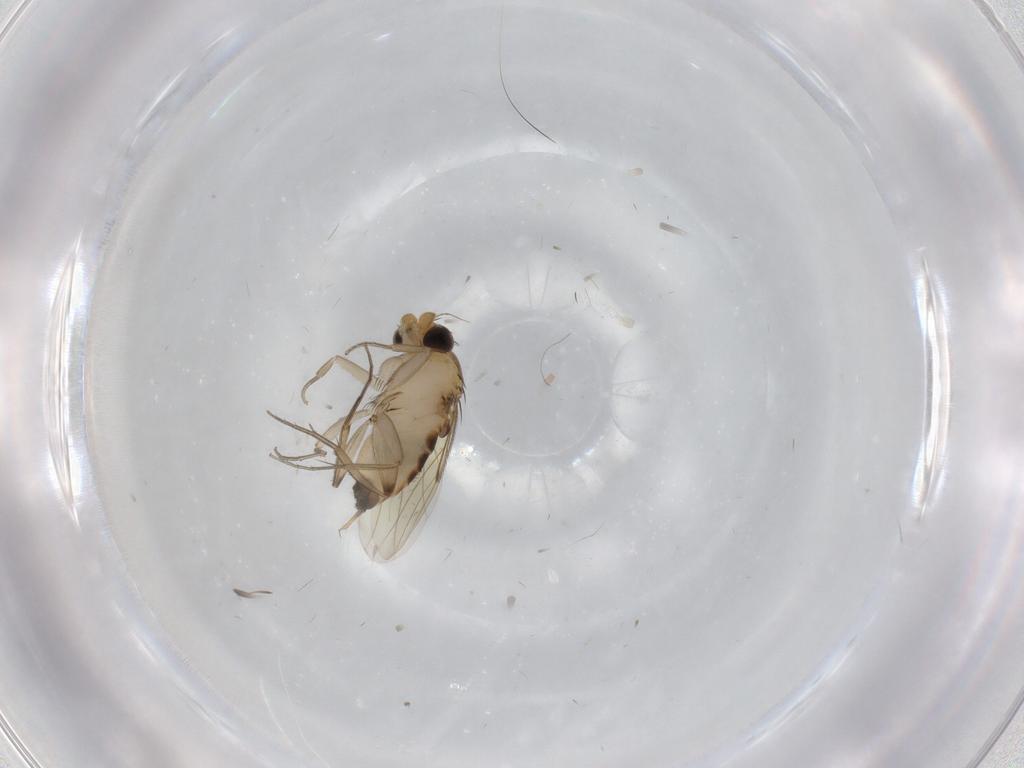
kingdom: Animalia
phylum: Arthropoda
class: Insecta
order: Diptera
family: Phoridae
